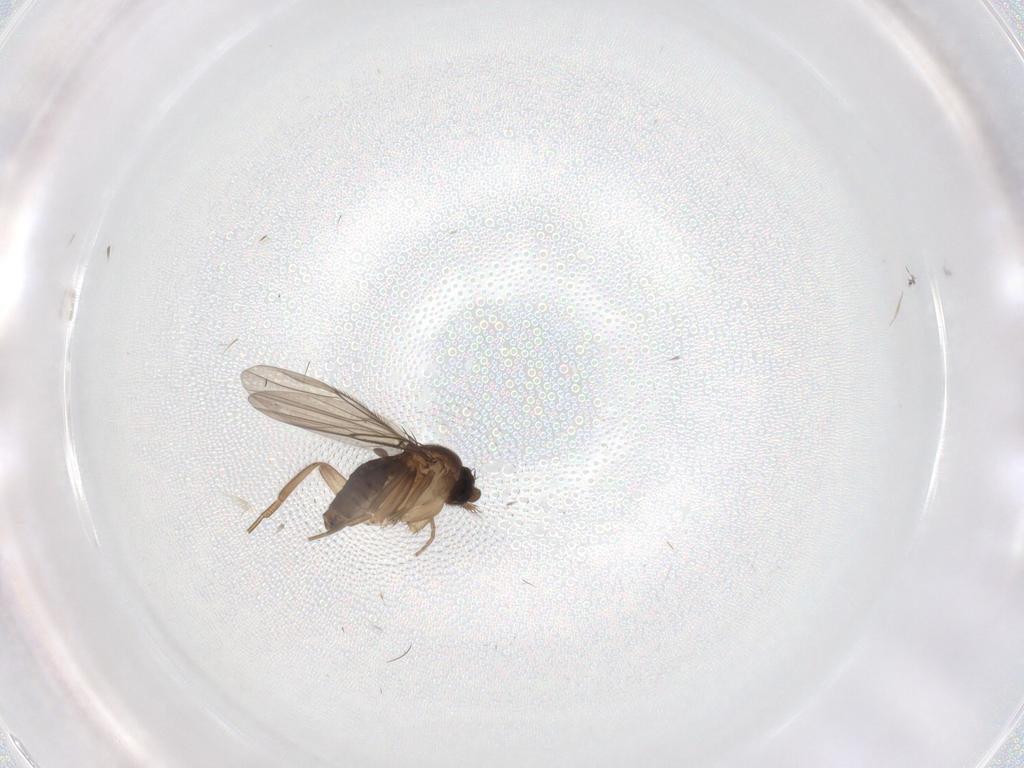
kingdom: Animalia
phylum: Arthropoda
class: Insecta
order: Diptera
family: Phoridae
